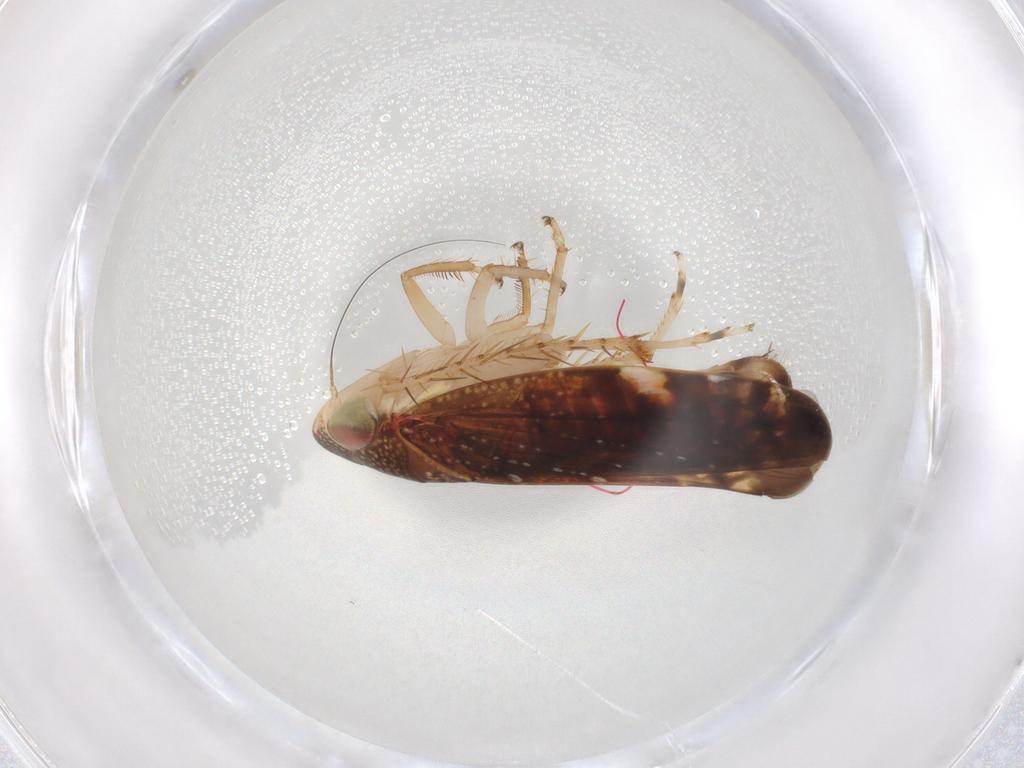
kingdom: Animalia
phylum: Arthropoda
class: Insecta
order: Hemiptera
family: Cicadellidae
